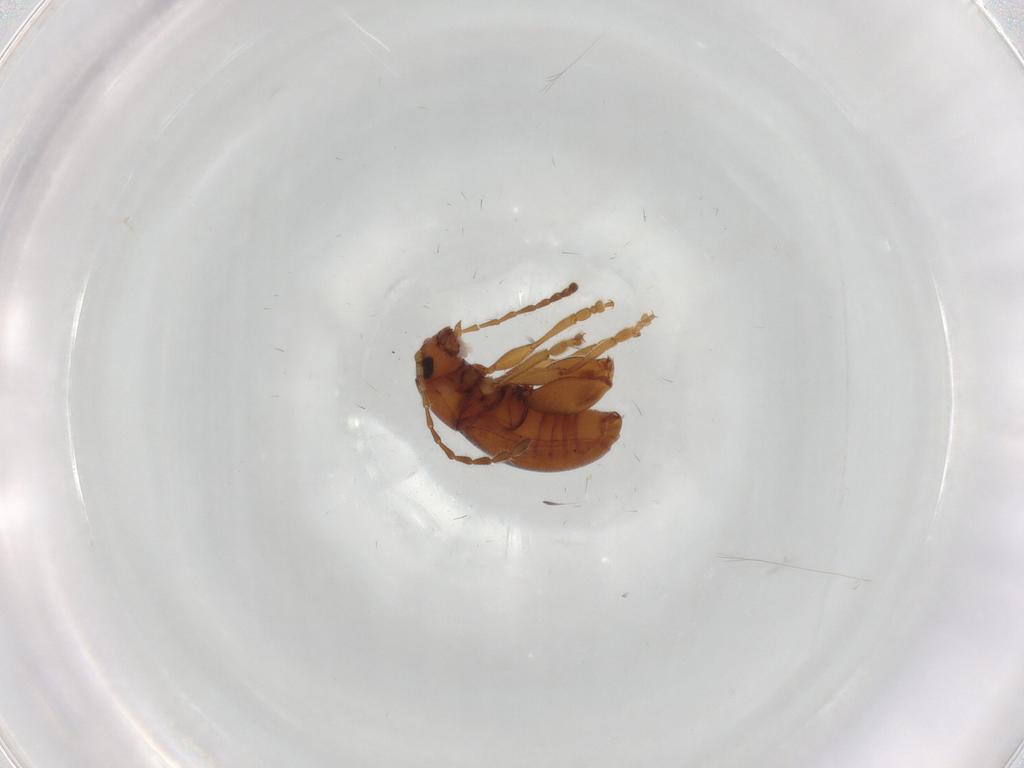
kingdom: Animalia
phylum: Arthropoda
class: Insecta
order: Coleoptera
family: Chrysomelidae
